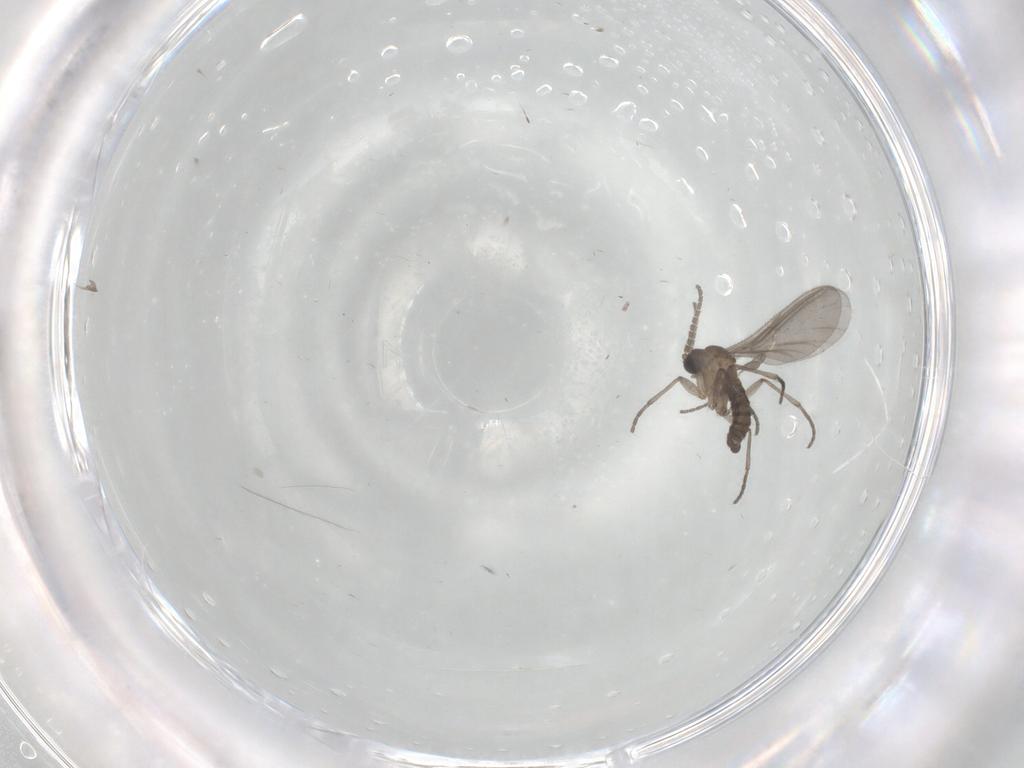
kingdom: Animalia
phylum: Arthropoda
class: Insecta
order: Diptera
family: Sciaridae
